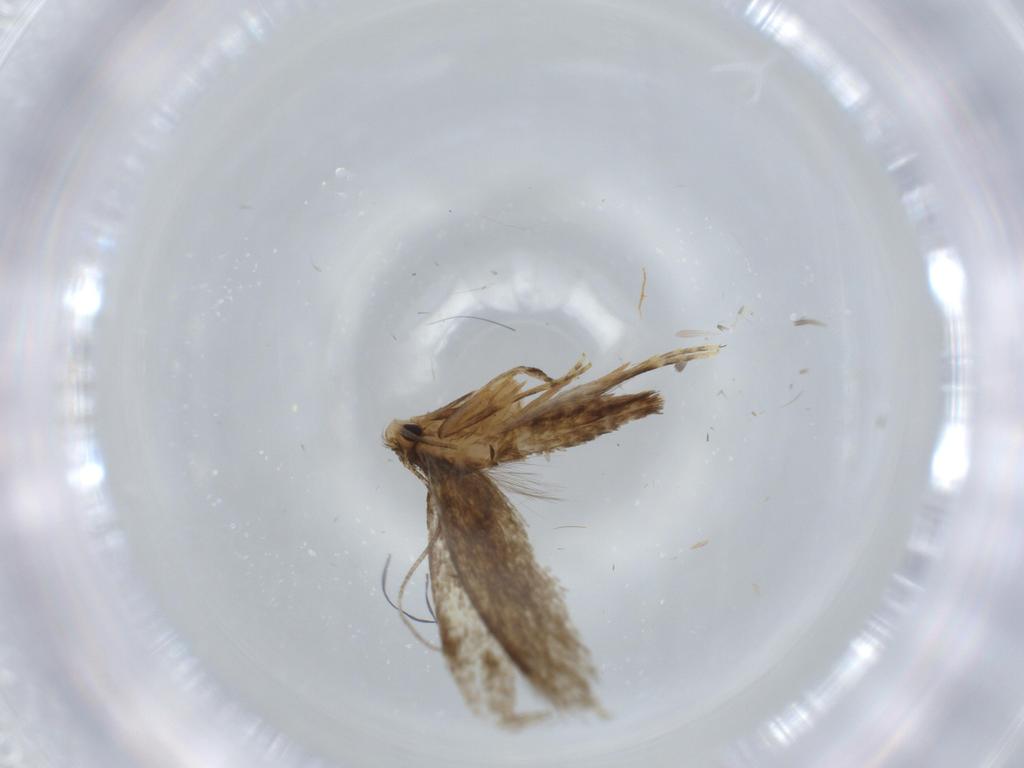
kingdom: Animalia
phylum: Arthropoda
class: Insecta
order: Lepidoptera
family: Tineidae
